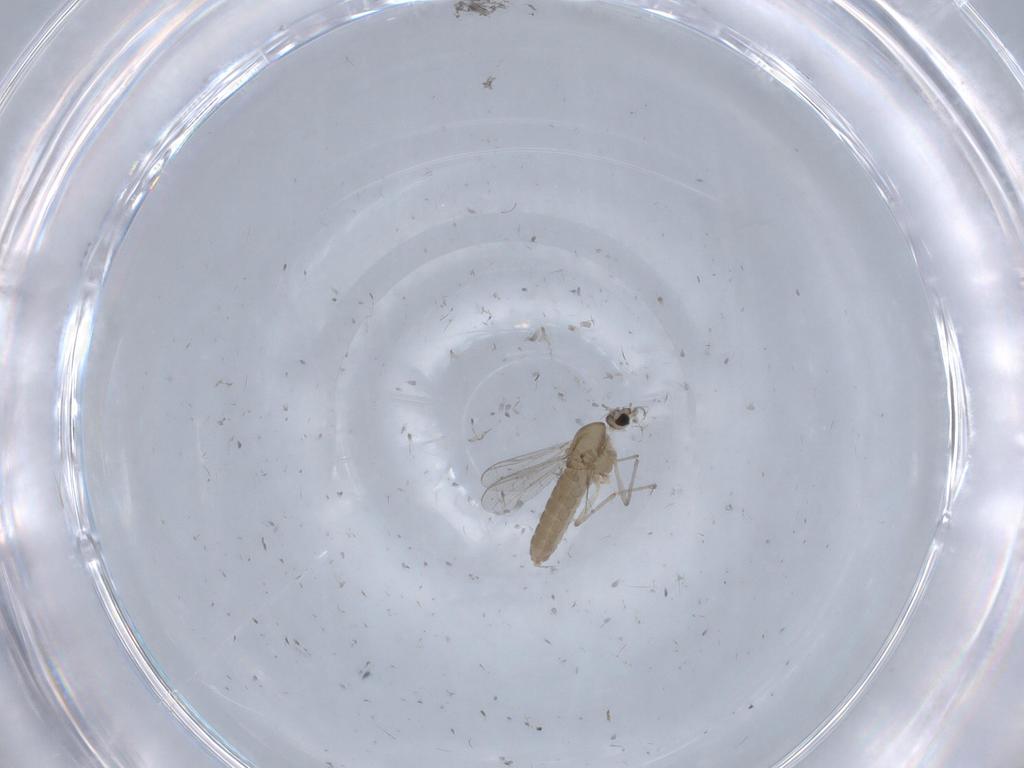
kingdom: Animalia
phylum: Arthropoda
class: Insecta
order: Diptera
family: Chironomidae
